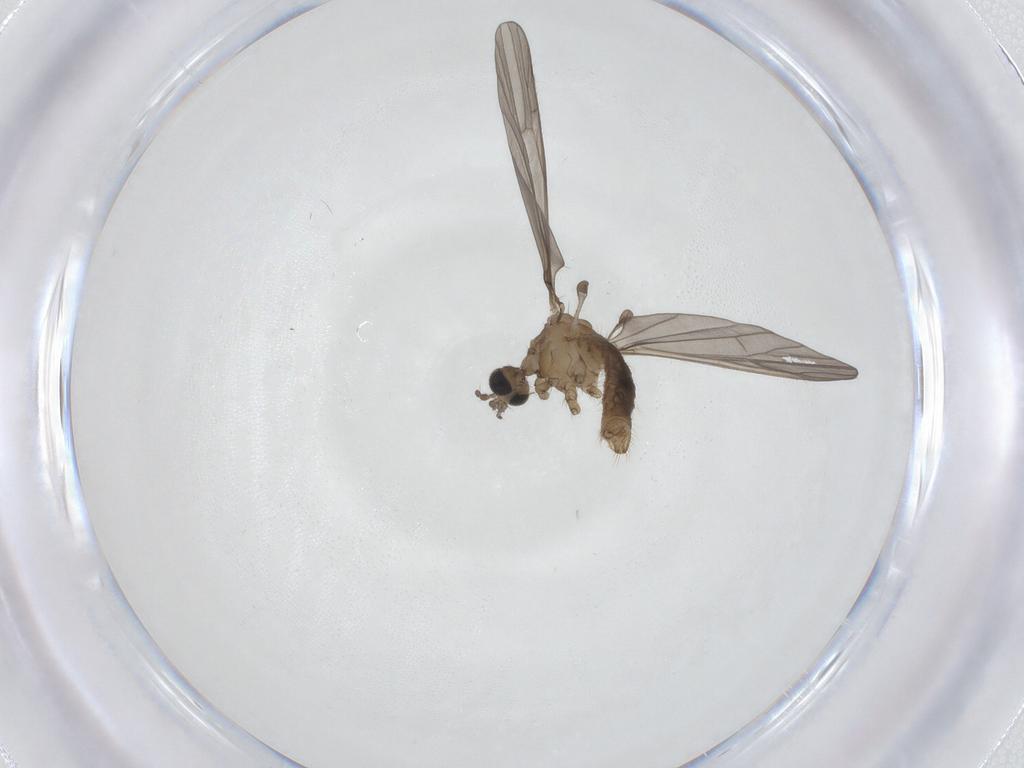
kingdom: Animalia
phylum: Arthropoda
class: Insecta
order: Diptera
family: Limoniidae
